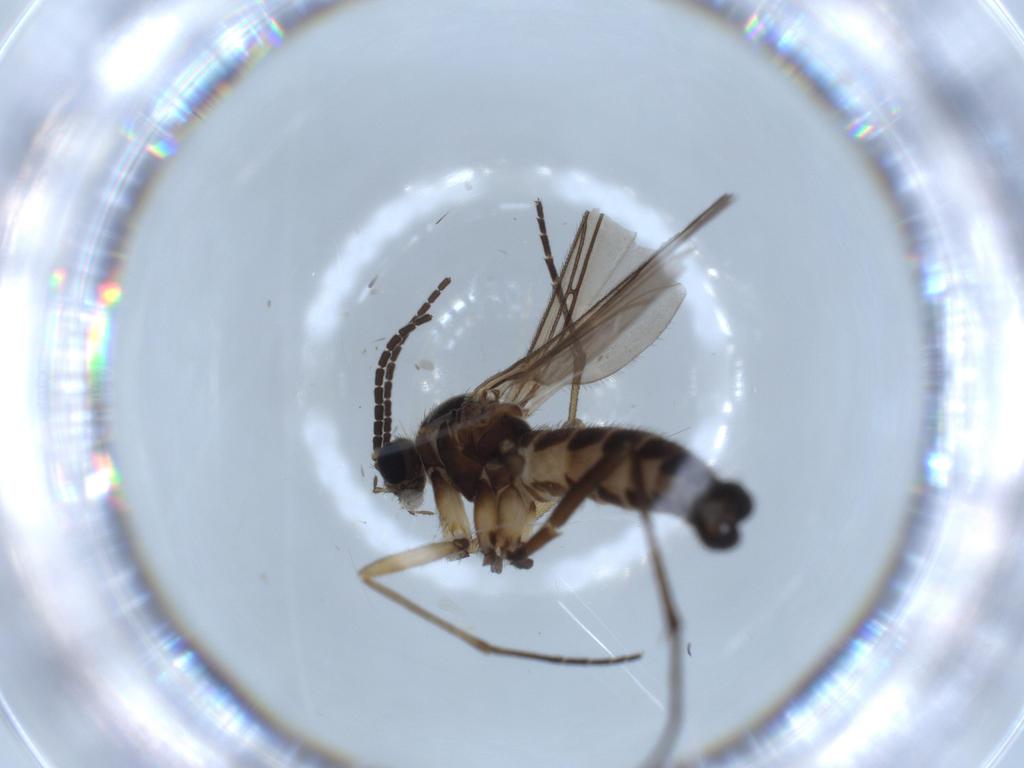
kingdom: Animalia
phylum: Arthropoda
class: Insecta
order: Diptera
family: Sciaridae
